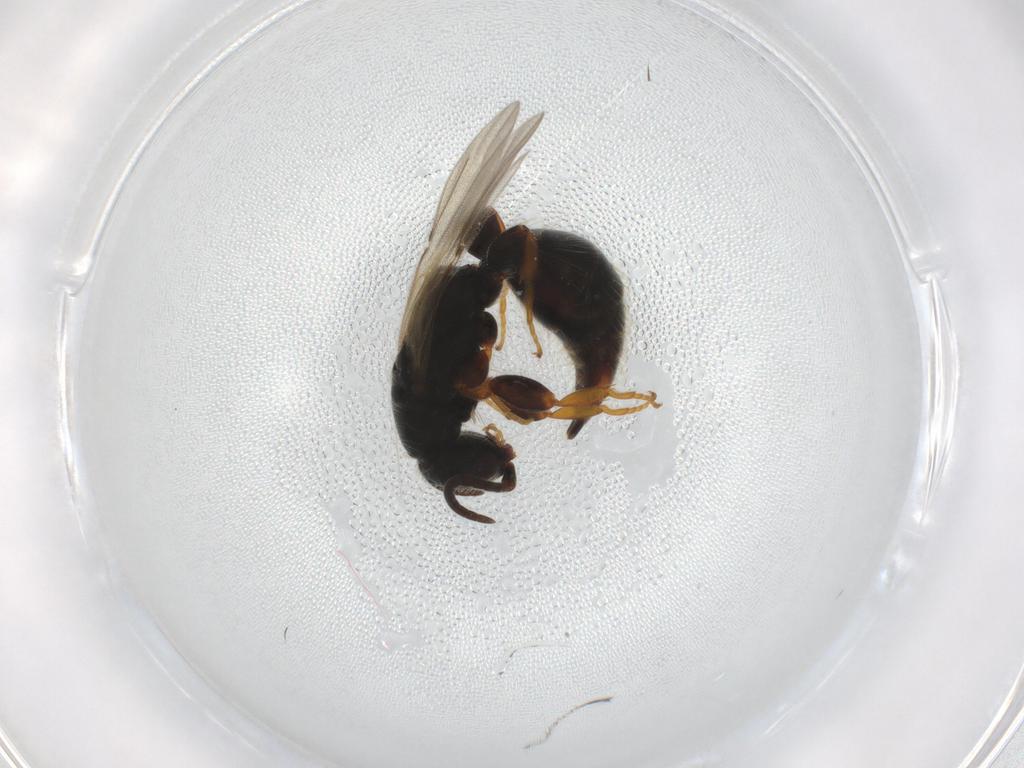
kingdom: Animalia
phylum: Arthropoda
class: Insecta
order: Hymenoptera
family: Bethylidae
